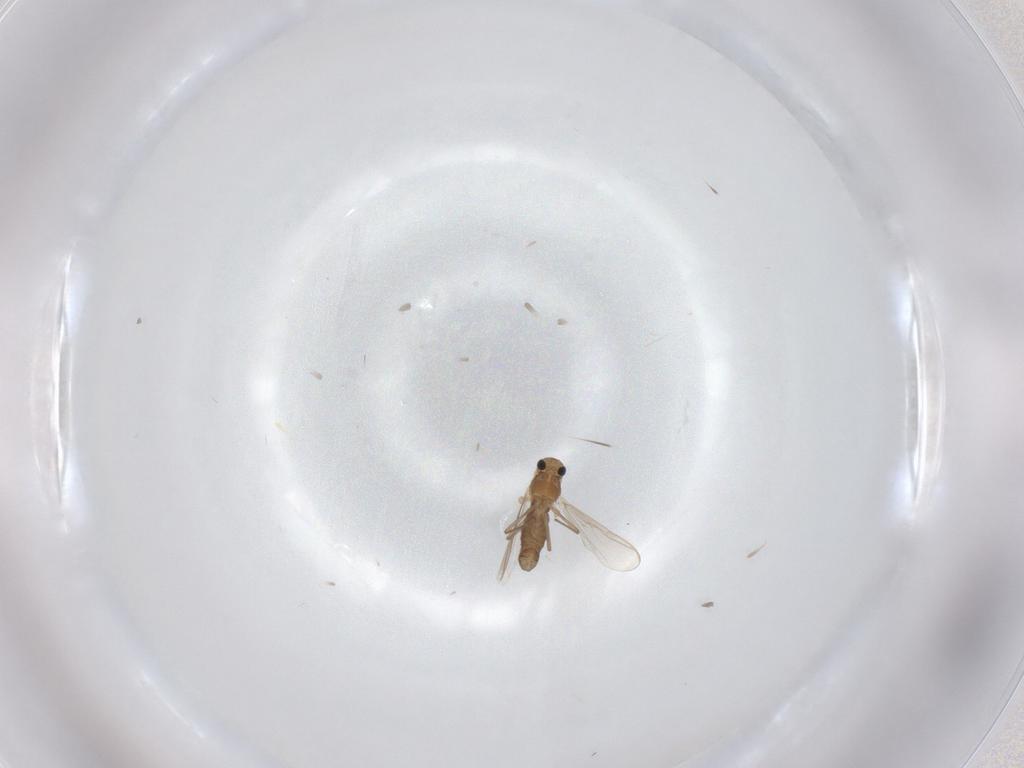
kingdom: Animalia
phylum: Arthropoda
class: Insecta
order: Diptera
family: Chironomidae
